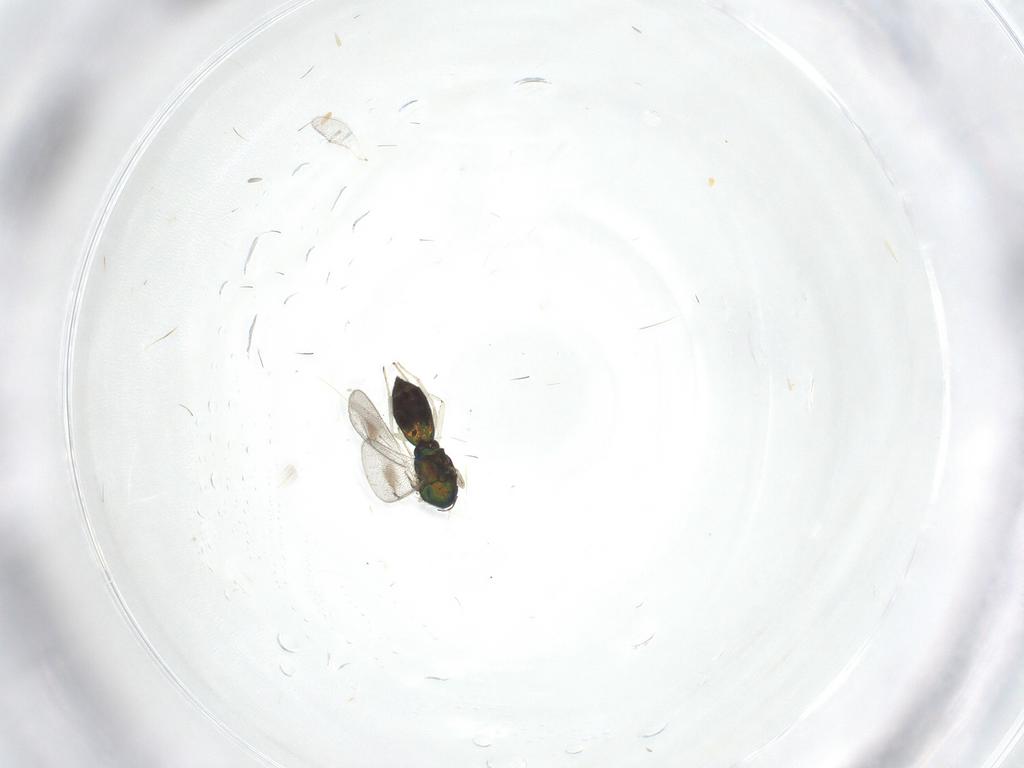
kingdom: Animalia
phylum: Arthropoda
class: Insecta
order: Hymenoptera
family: Eulophidae
